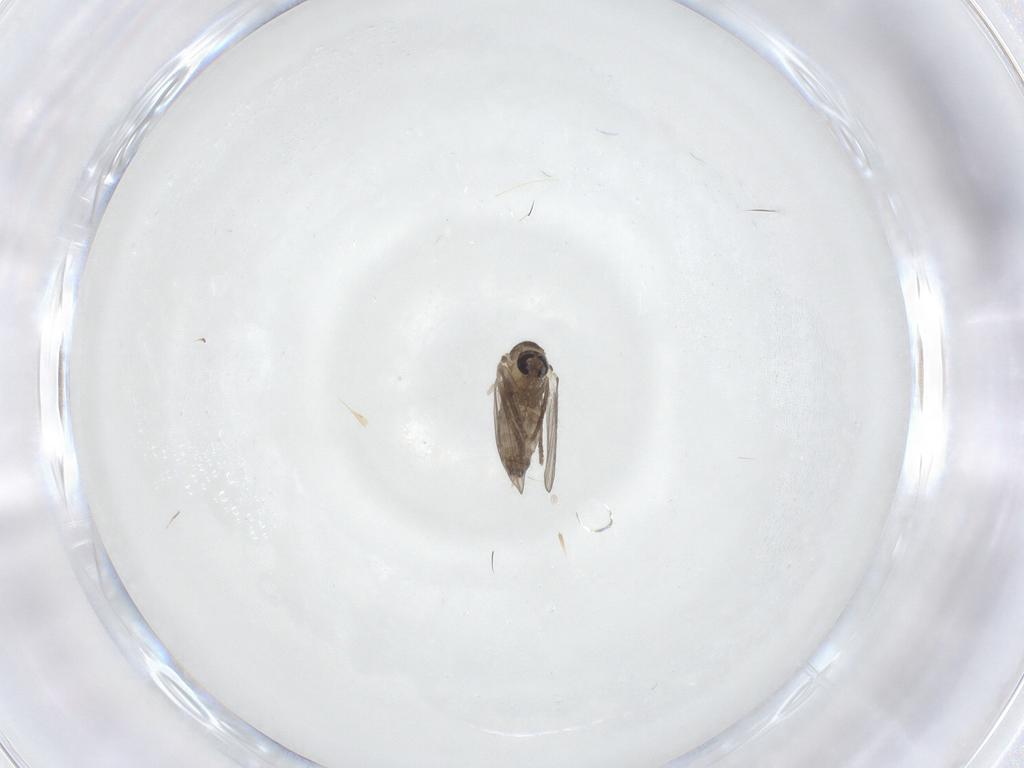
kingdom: Animalia
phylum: Arthropoda
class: Insecta
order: Diptera
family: Psychodidae
